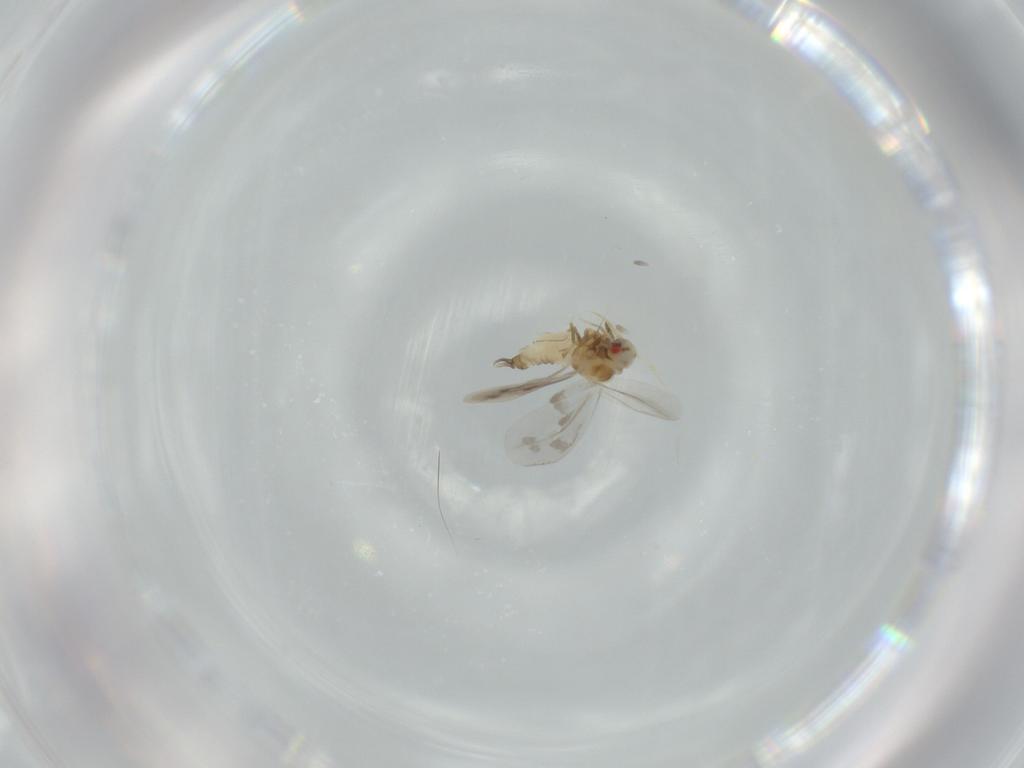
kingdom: Animalia
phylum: Arthropoda
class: Insecta
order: Hemiptera
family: Aleyrodidae
